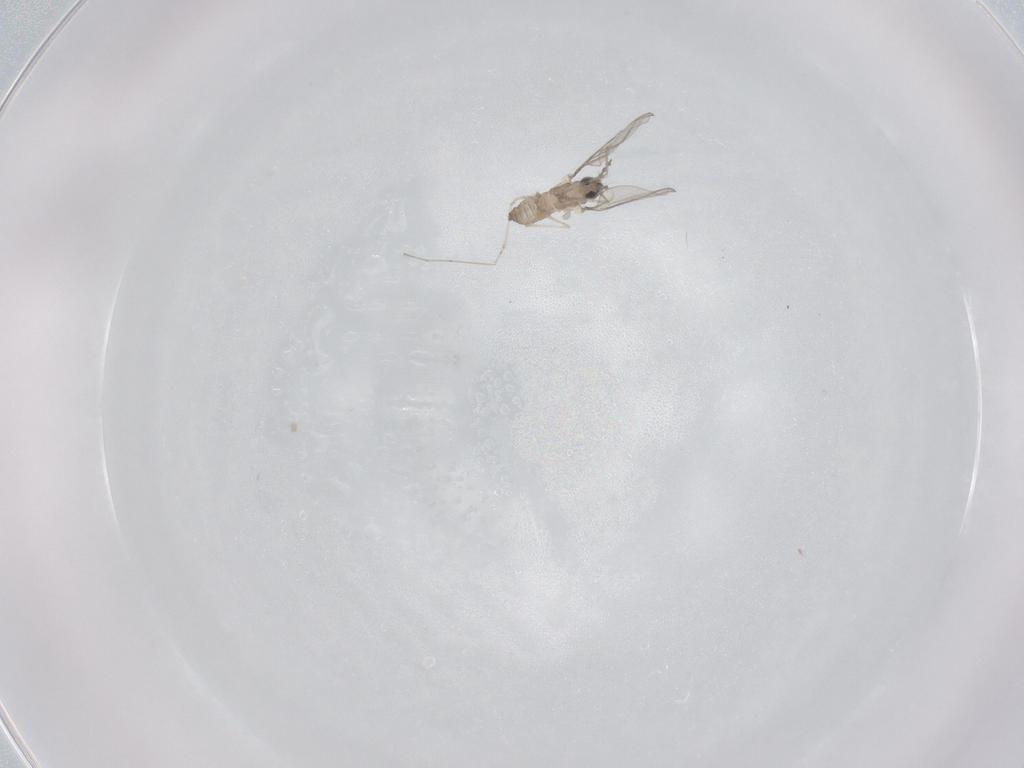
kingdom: Animalia
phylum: Arthropoda
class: Insecta
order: Diptera
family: Cecidomyiidae
